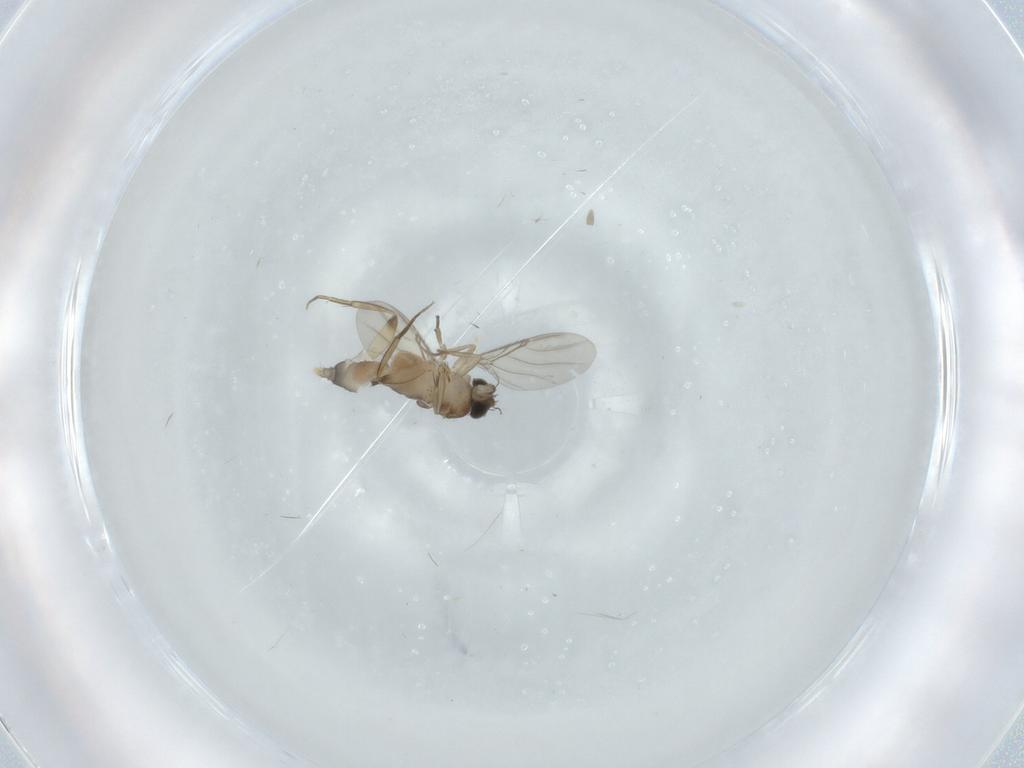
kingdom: Animalia
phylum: Arthropoda
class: Insecta
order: Diptera
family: Phoridae
